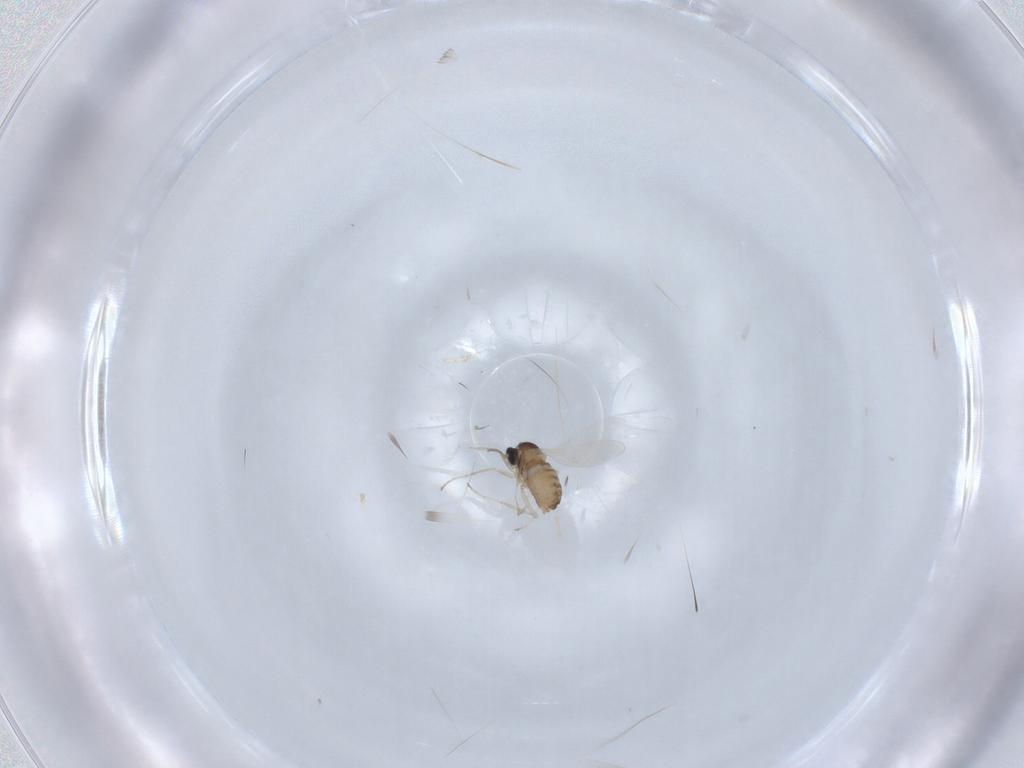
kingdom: Animalia
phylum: Arthropoda
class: Insecta
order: Diptera
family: Cecidomyiidae
